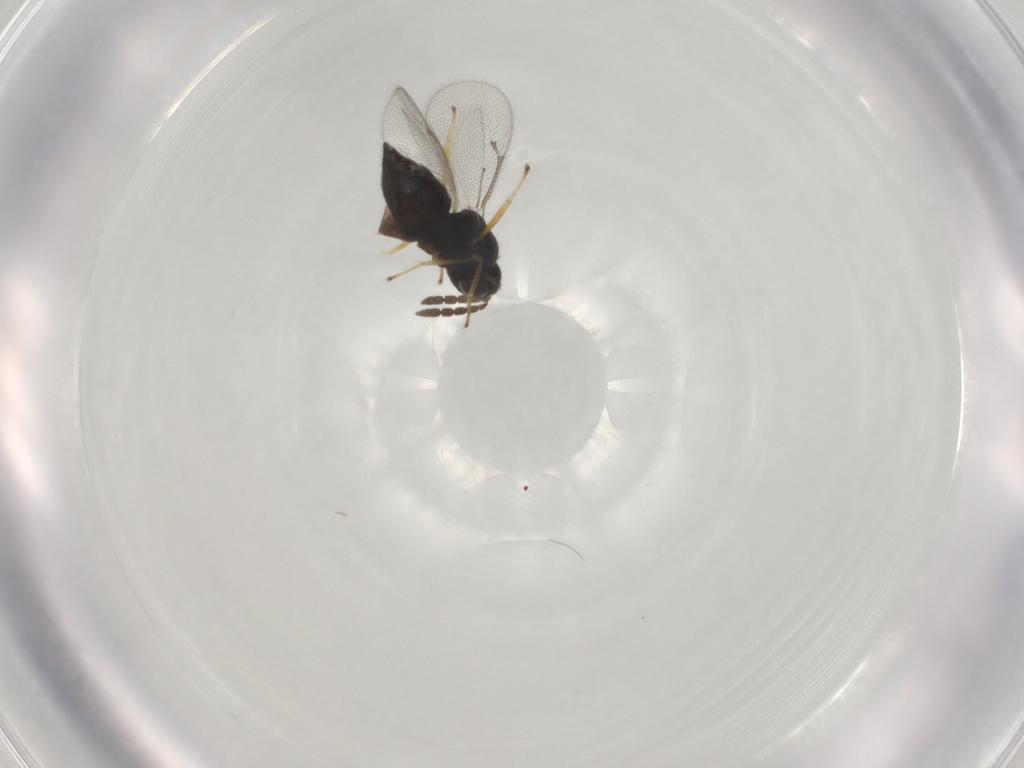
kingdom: Animalia
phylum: Arthropoda
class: Insecta
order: Hymenoptera
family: Eulophidae
